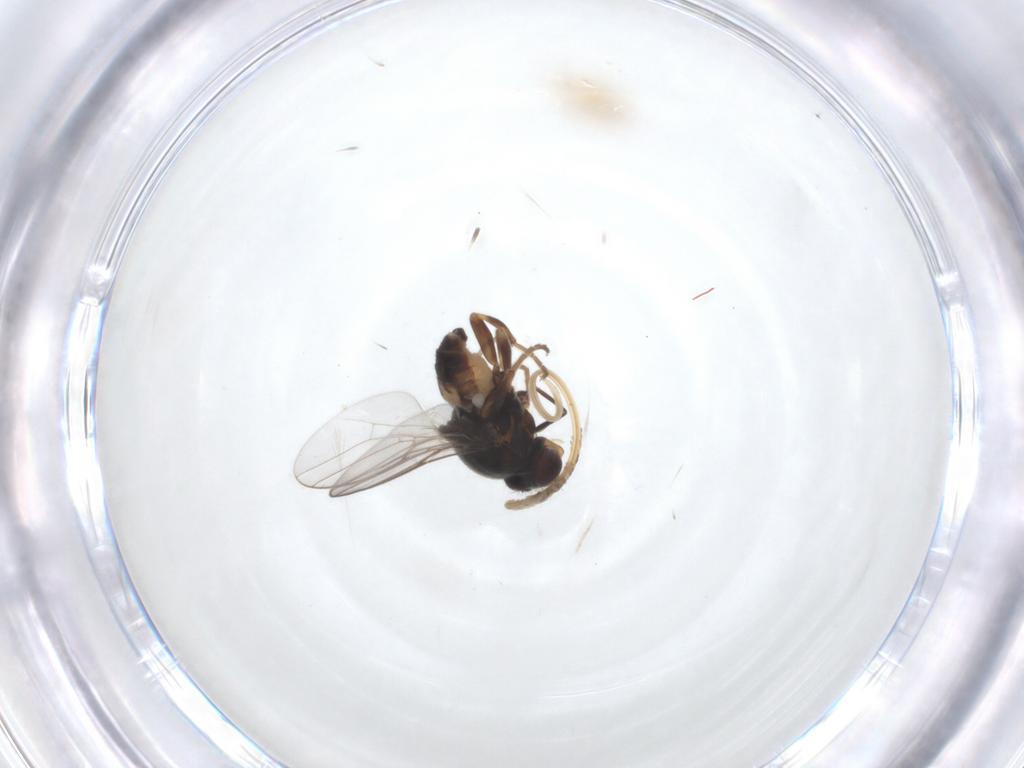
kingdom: Animalia
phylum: Arthropoda
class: Insecta
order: Diptera
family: Chloropidae
